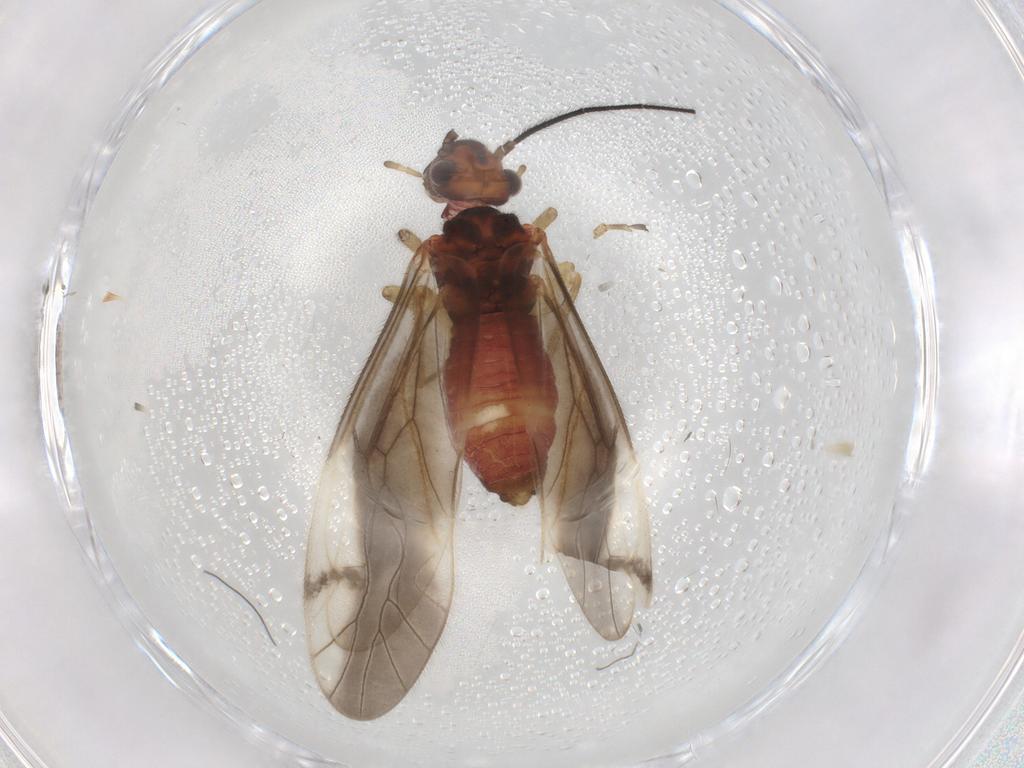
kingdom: Animalia
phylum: Arthropoda
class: Insecta
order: Psocodea
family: Caeciliusidae
